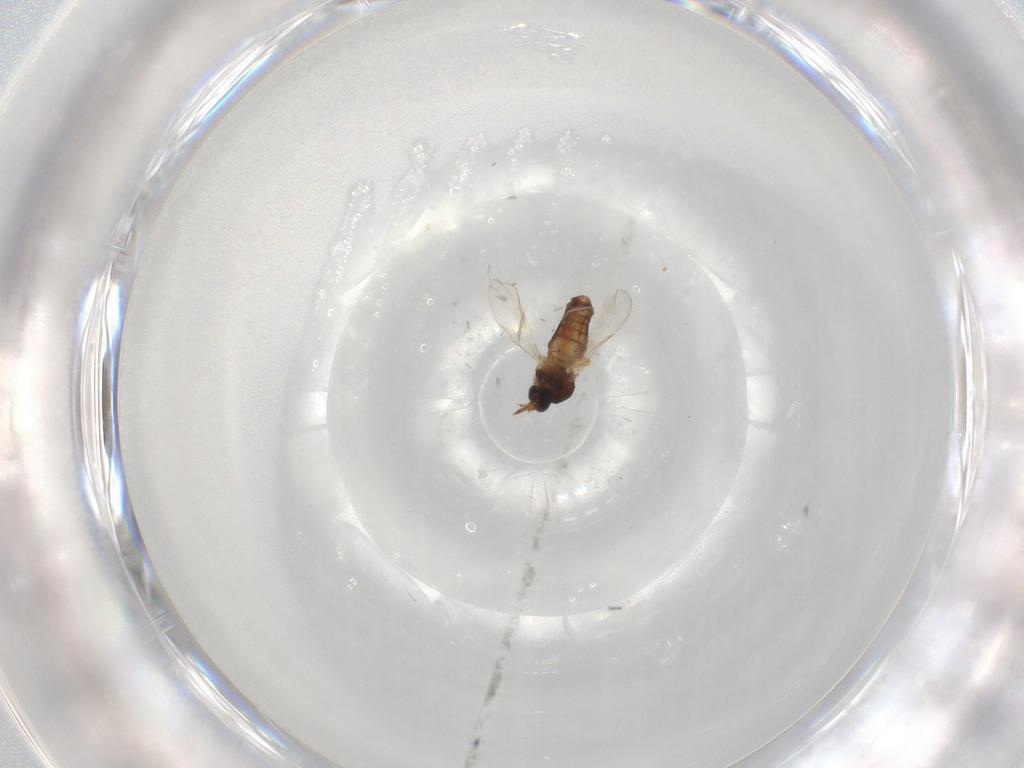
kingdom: Animalia
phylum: Arthropoda
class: Insecta
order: Diptera
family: Ceratopogonidae
